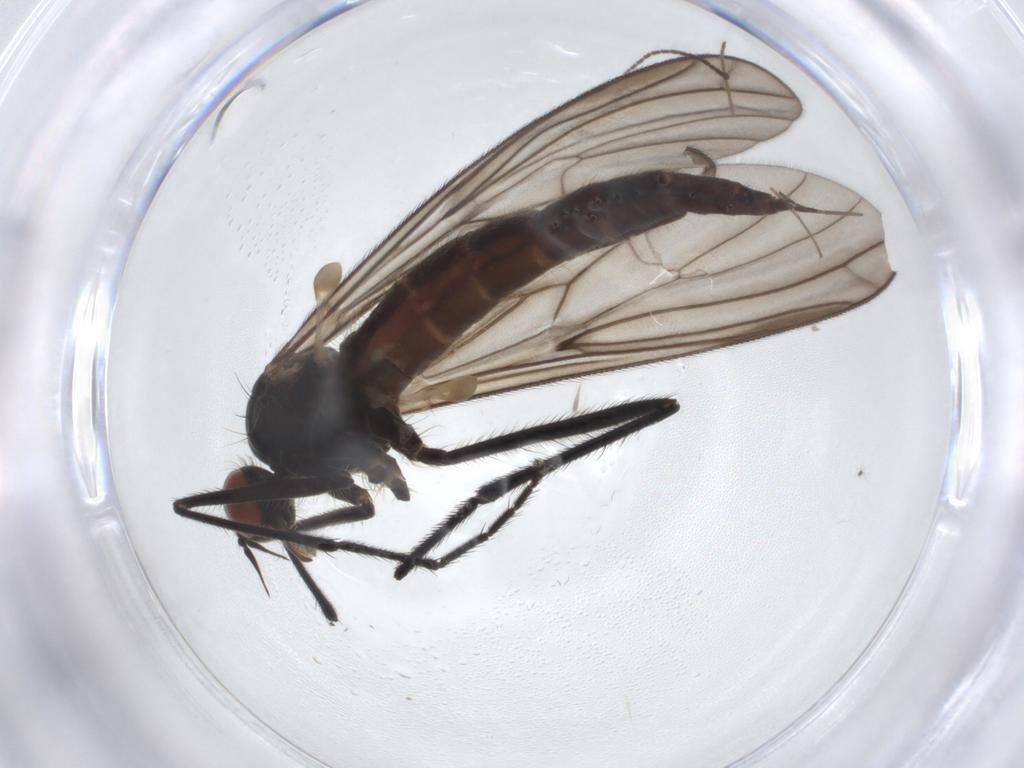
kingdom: Animalia
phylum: Arthropoda
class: Insecta
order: Diptera
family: Empididae
